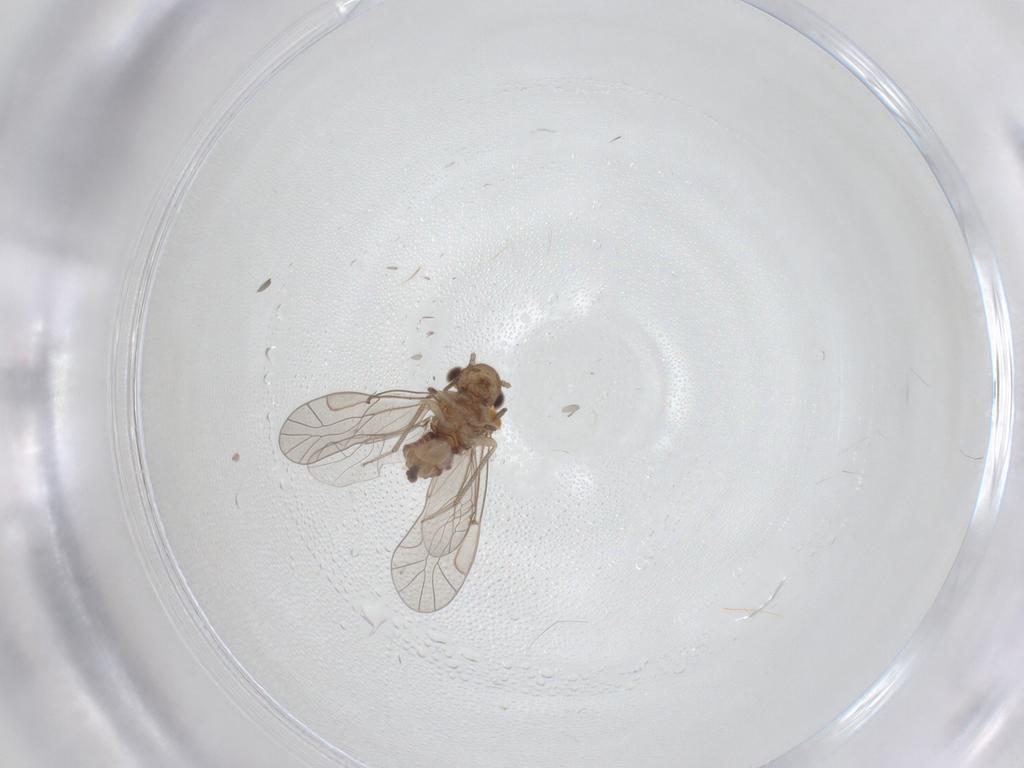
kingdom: Animalia
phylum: Arthropoda
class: Insecta
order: Psocodea
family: Lachesillidae
